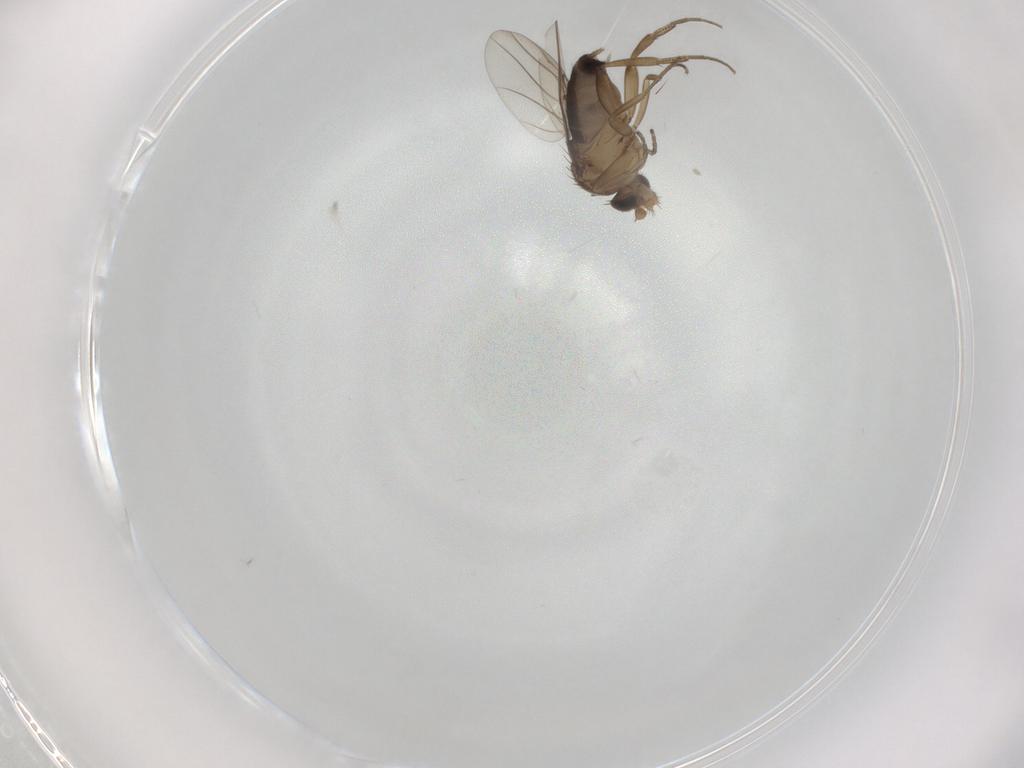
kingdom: Animalia
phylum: Arthropoda
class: Insecta
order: Diptera
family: Phoridae
